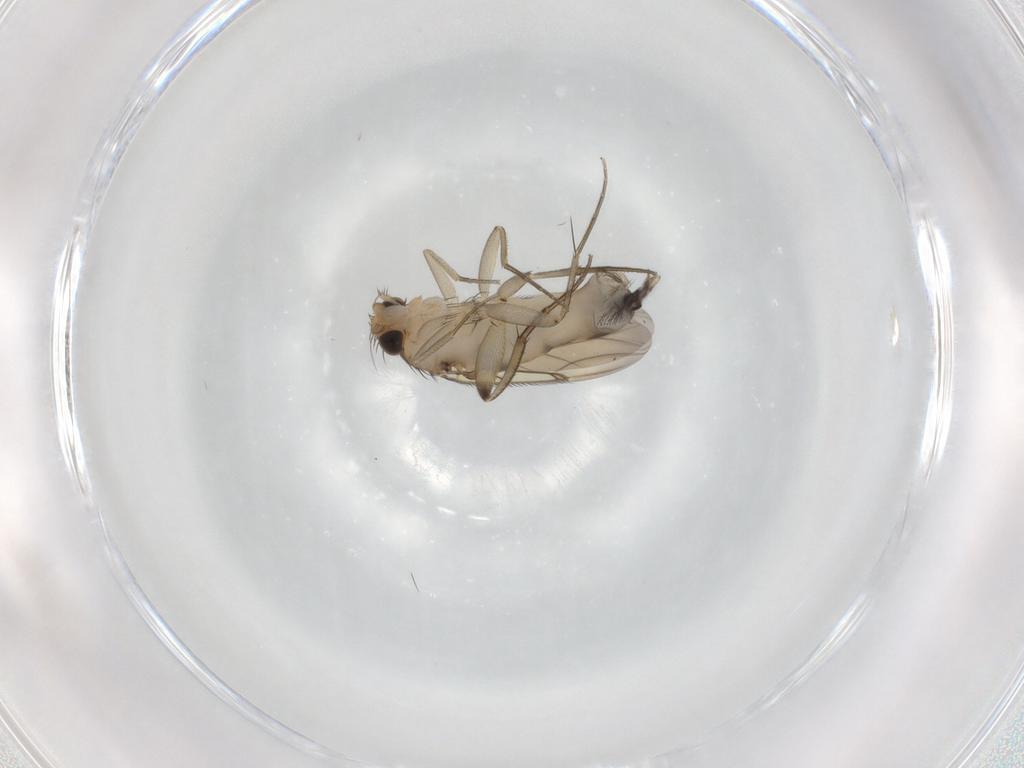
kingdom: Animalia
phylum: Arthropoda
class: Insecta
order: Diptera
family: Phoridae
